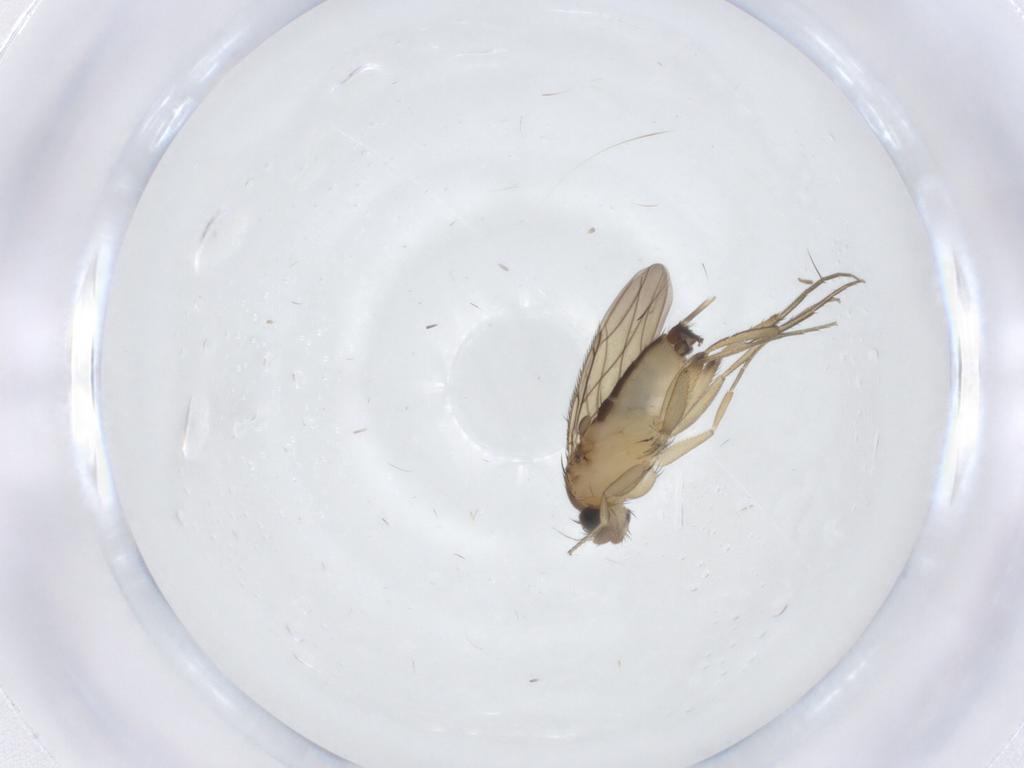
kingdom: Animalia
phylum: Arthropoda
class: Insecta
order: Diptera
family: Phoridae
